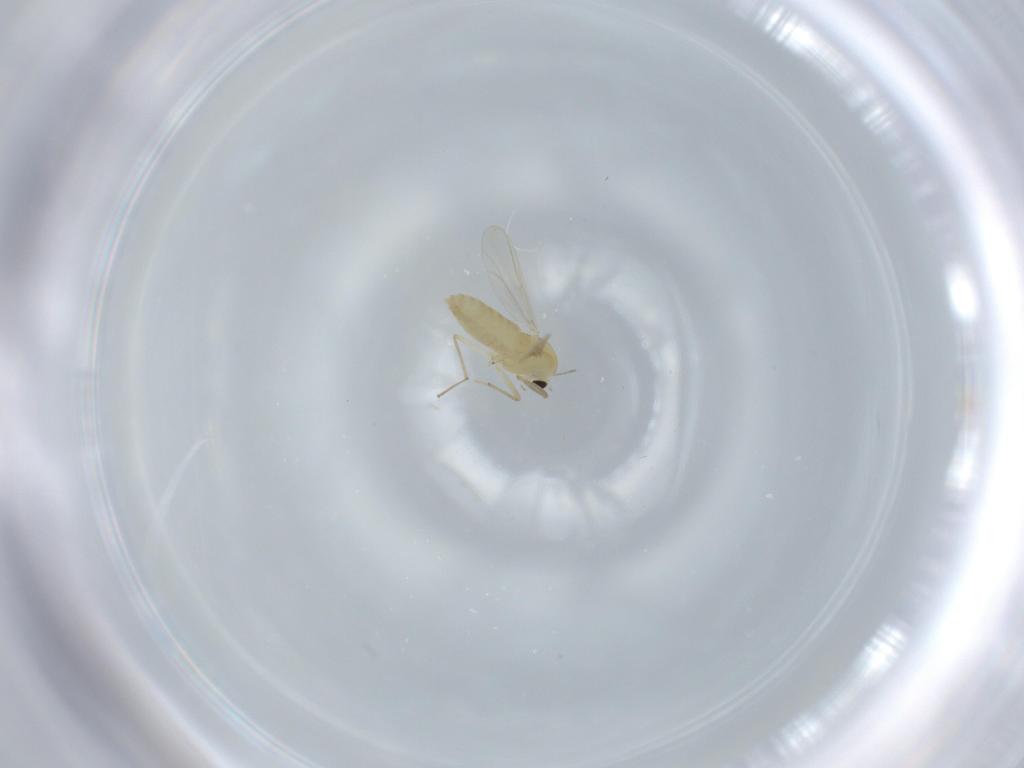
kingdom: Animalia
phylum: Arthropoda
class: Insecta
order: Diptera
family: Chironomidae
